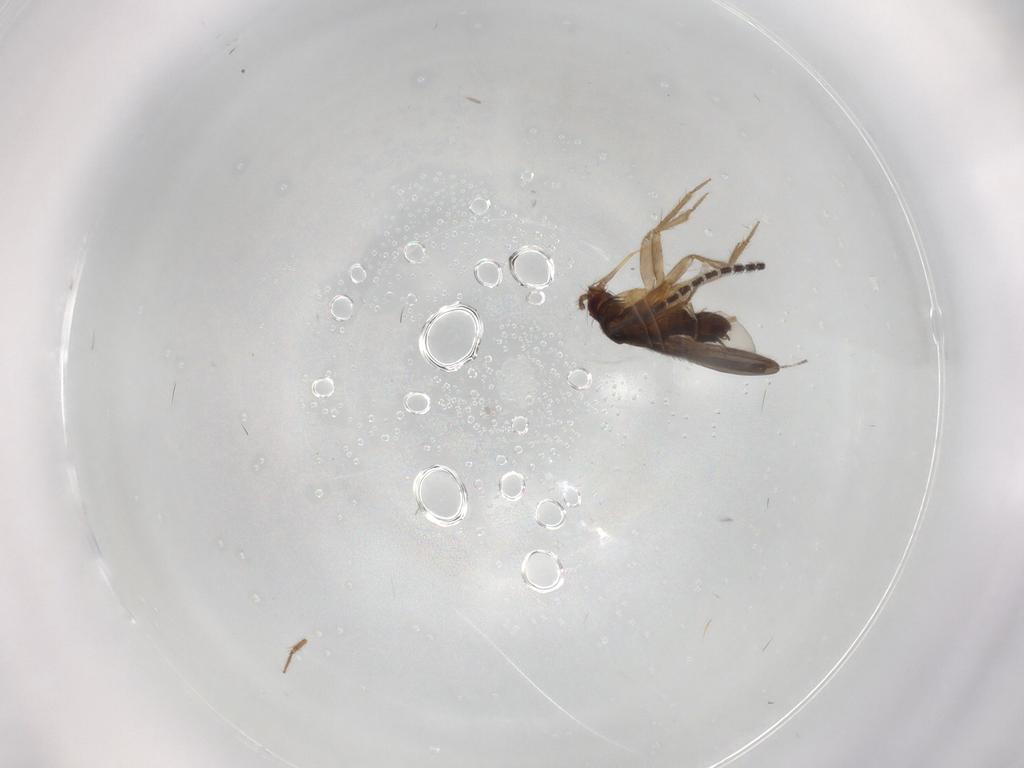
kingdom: Animalia
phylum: Arthropoda
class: Insecta
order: Hemiptera
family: Ceratocombidae
